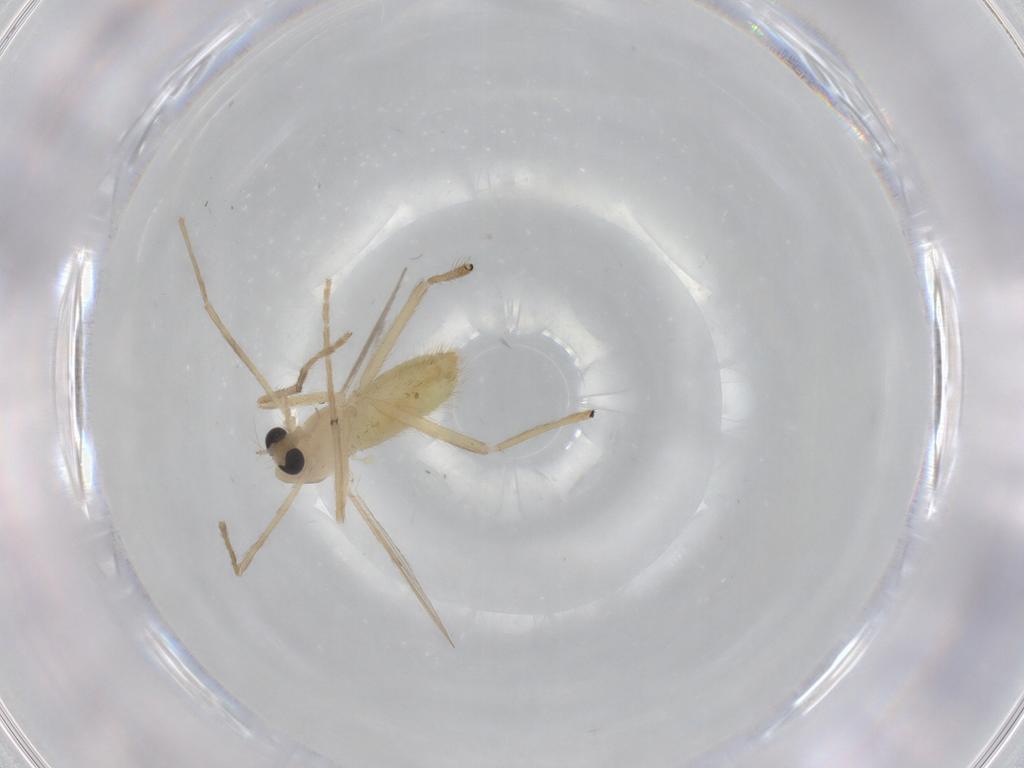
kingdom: Animalia
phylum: Arthropoda
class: Insecta
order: Diptera
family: Chironomidae
